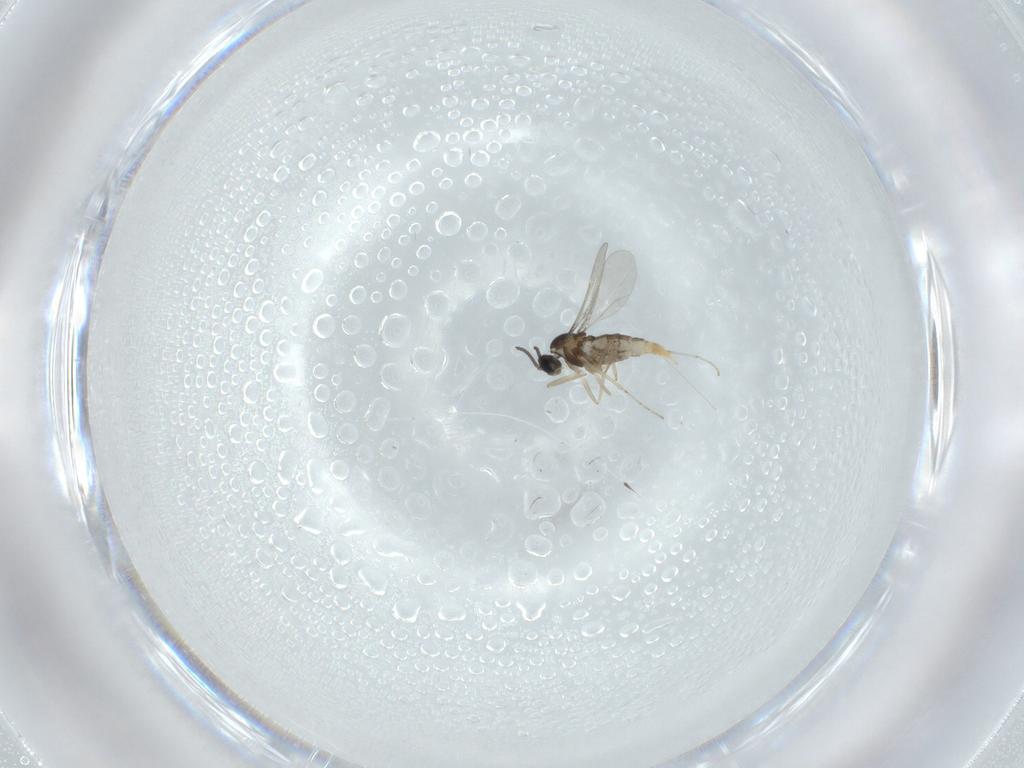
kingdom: Animalia
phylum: Arthropoda
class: Insecta
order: Diptera
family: Cecidomyiidae
